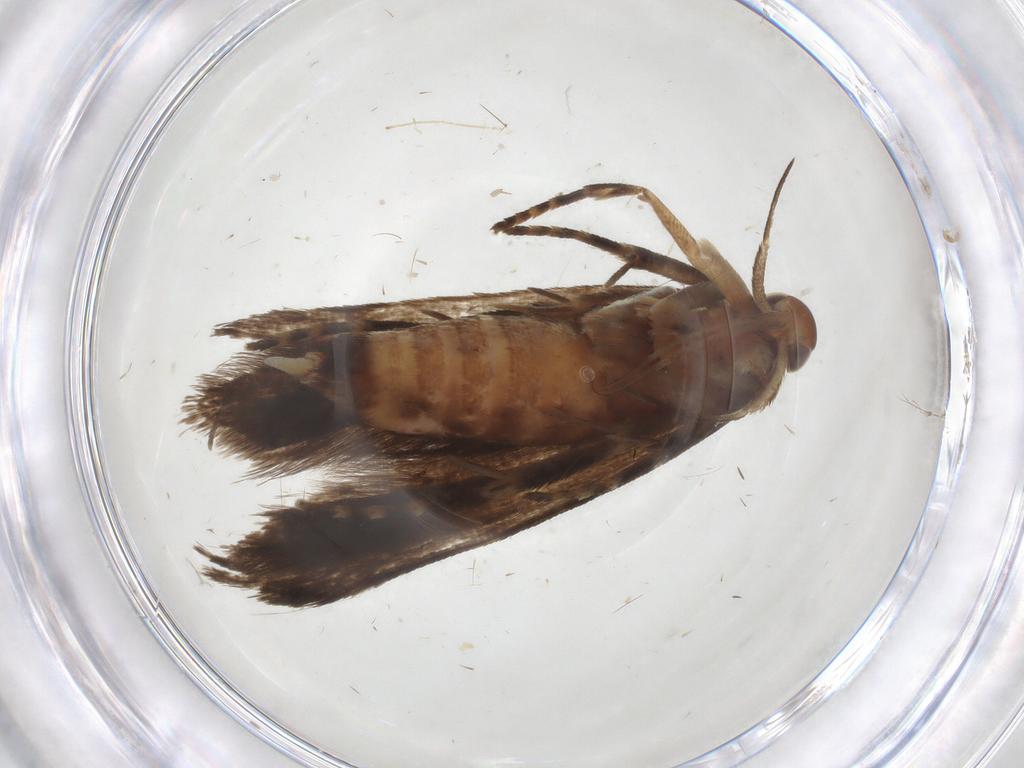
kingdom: Animalia
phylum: Arthropoda
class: Insecta
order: Lepidoptera
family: Crambidae
